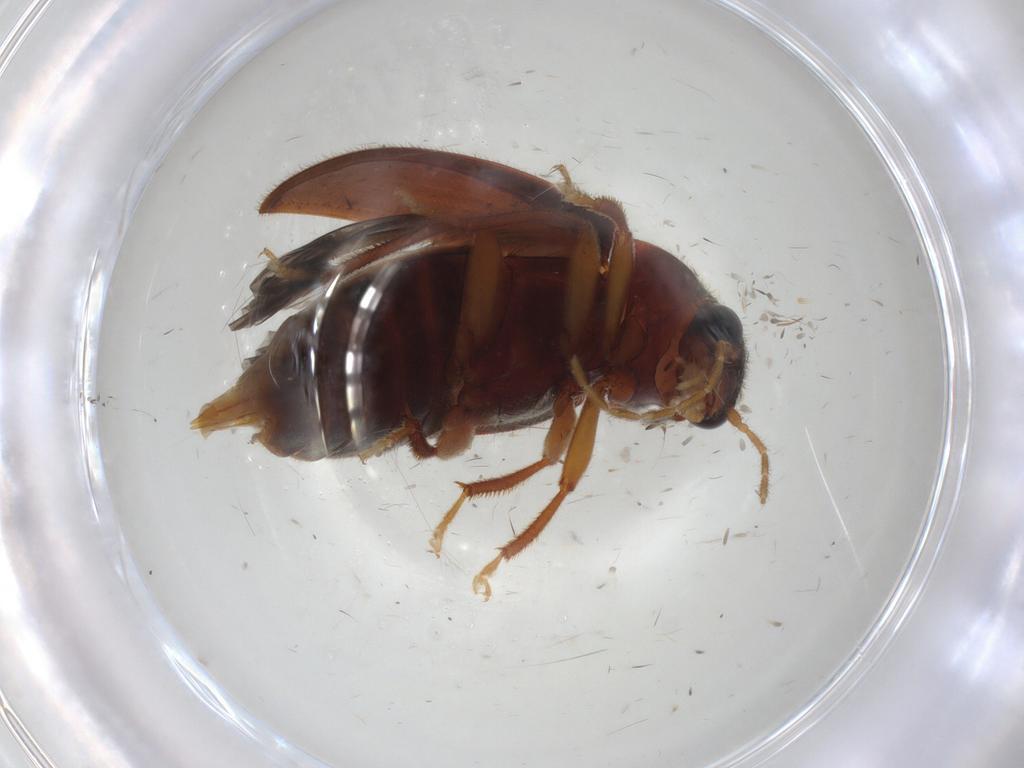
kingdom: Animalia
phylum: Arthropoda
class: Insecta
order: Coleoptera
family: Ptilodactylidae
